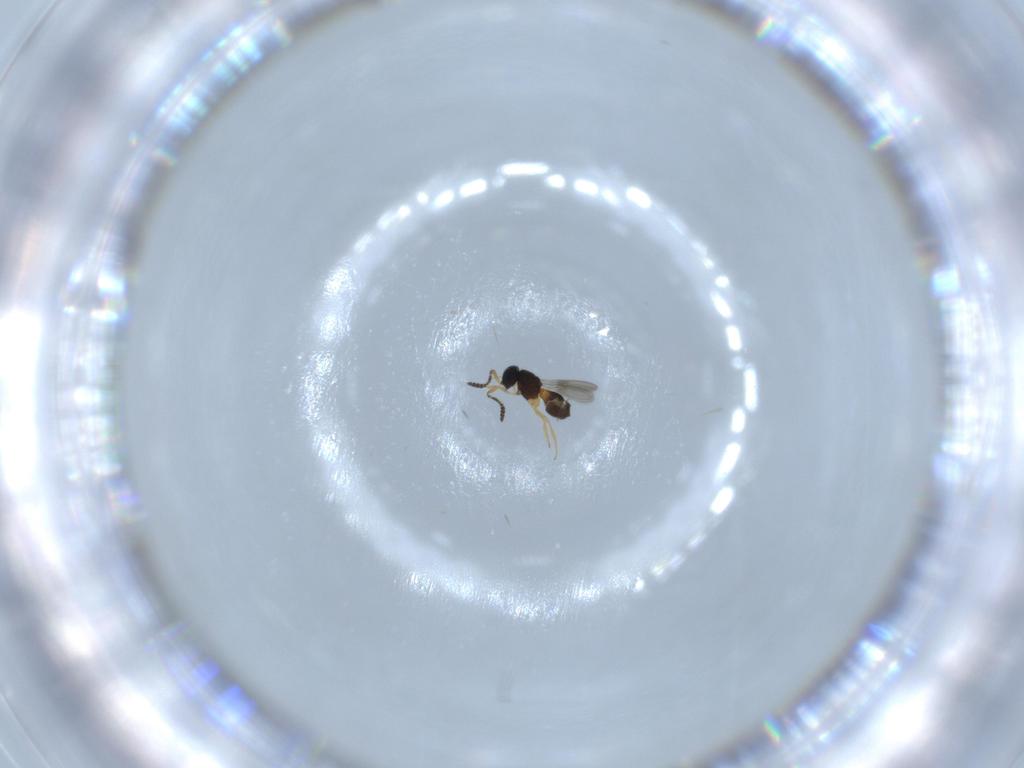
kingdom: Animalia
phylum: Arthropoda
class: Insecta
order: Hymenoptera
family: Scelionidae
